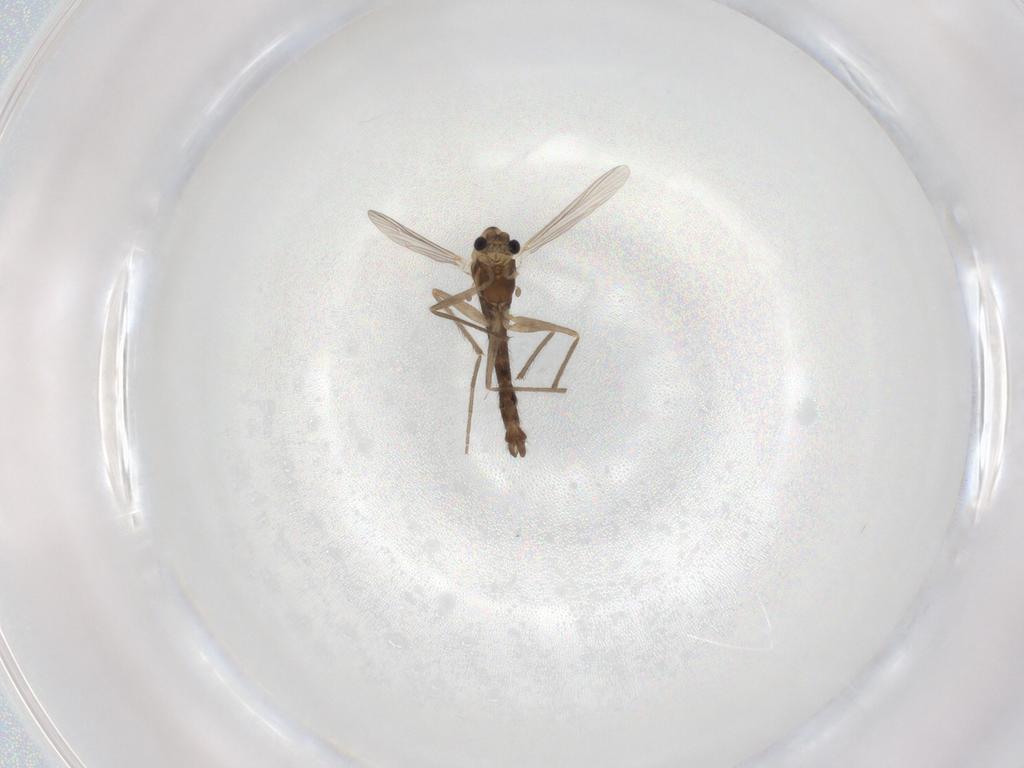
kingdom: Animalia
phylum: Arthropoda
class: Insecta
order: Diptera
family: Chironomidae
